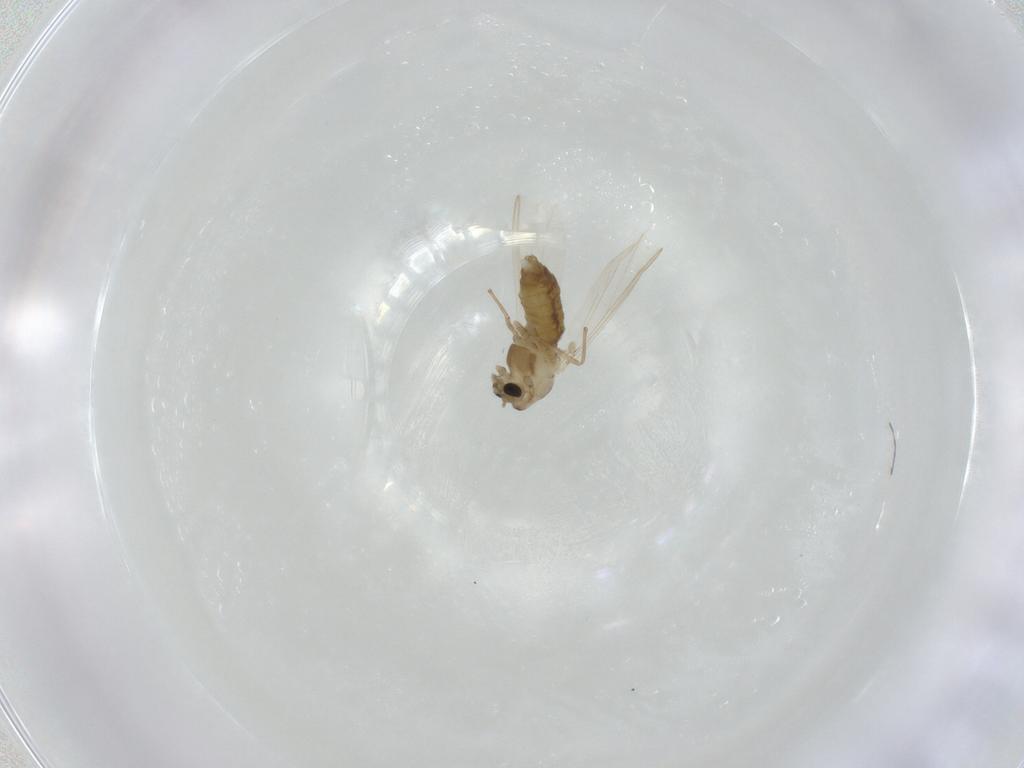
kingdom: Animalia
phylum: Arthropoda
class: Insecta
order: Diptera
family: Chironomidae
